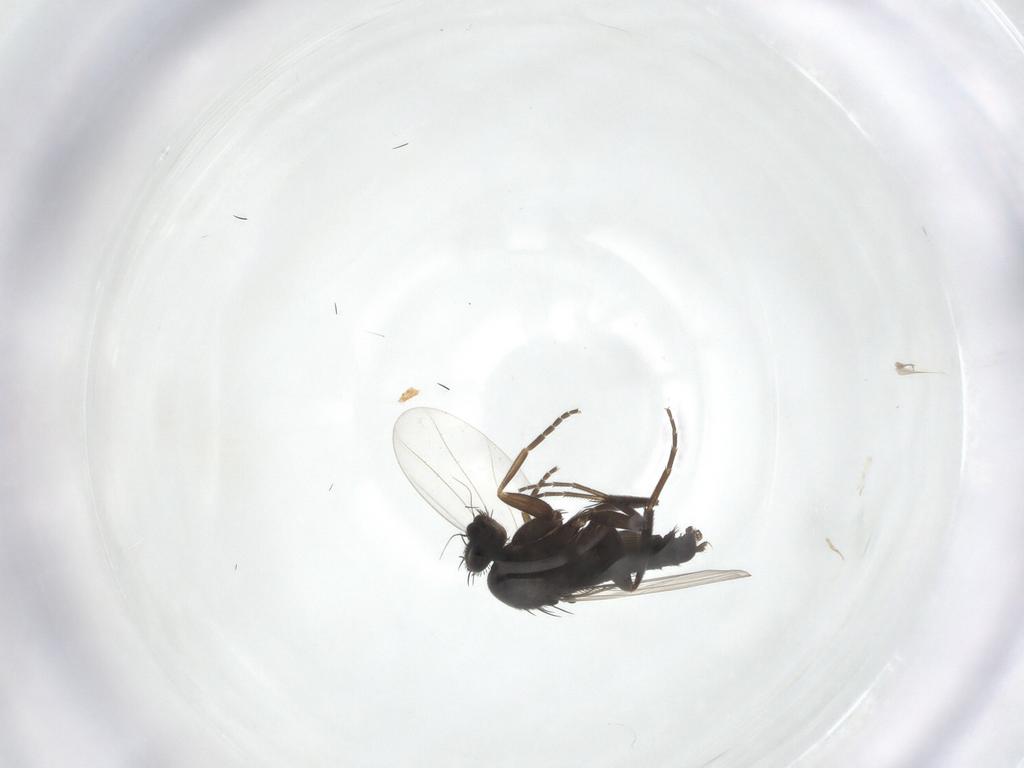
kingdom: Animalia
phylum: Arthropoda
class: Insecta
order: Diptera
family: Phoridae
